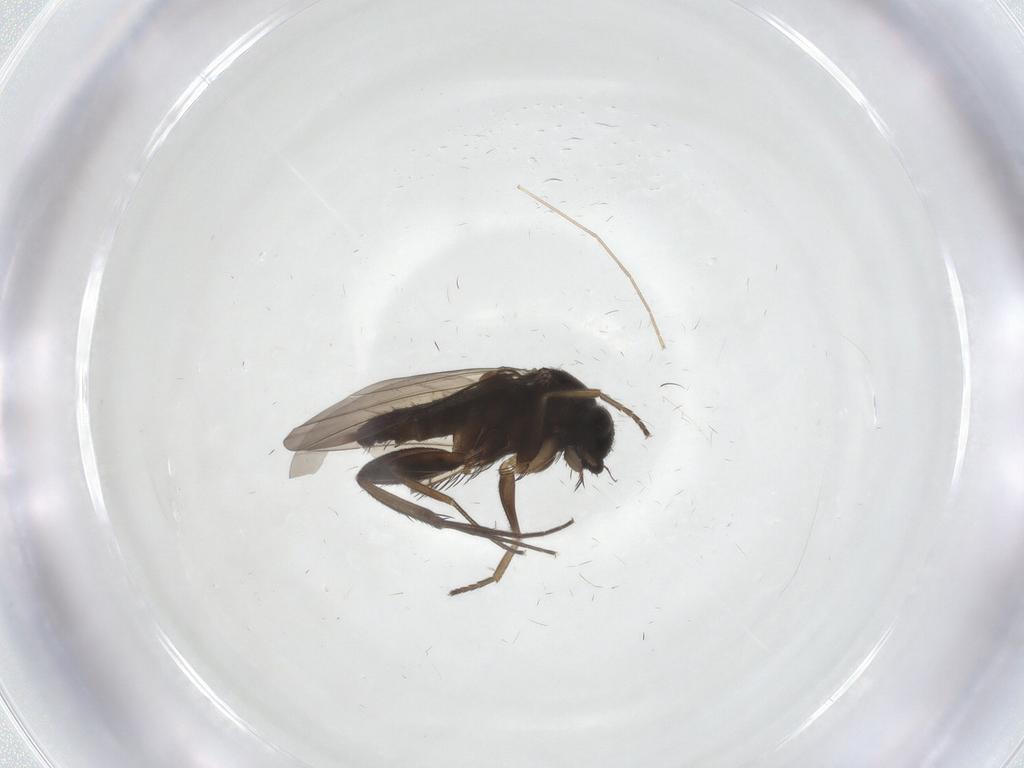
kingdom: Animalia
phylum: Arthropoda
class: Insecta
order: Diptera
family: Phoridae
